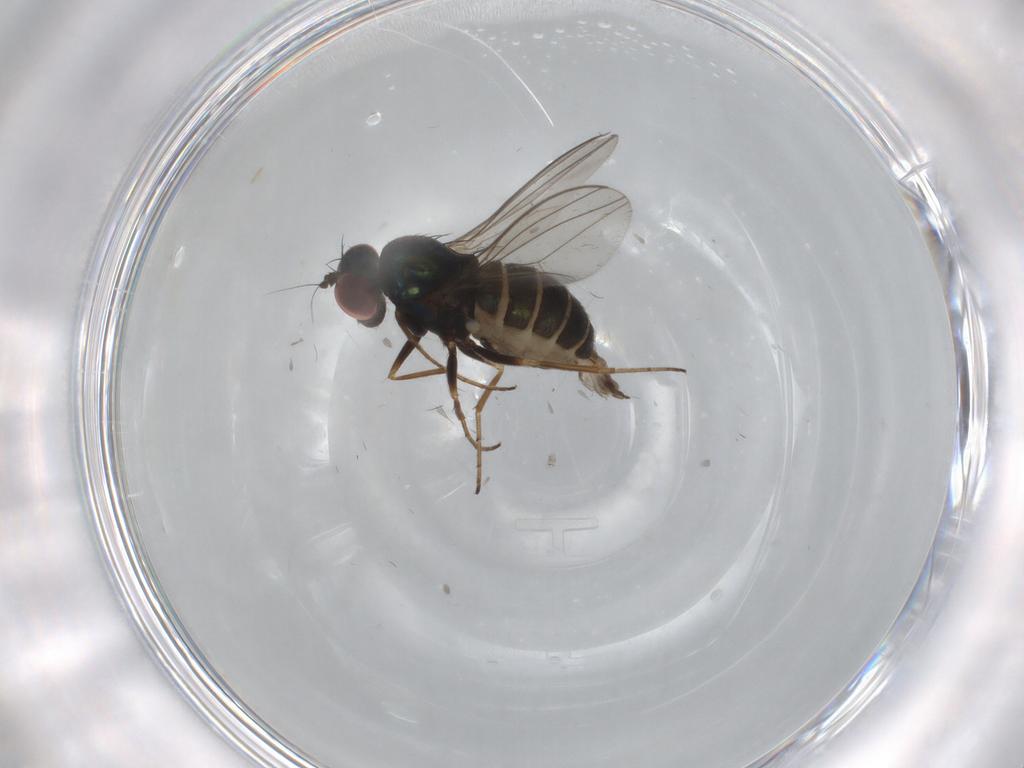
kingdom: Animalia
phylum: Arthropoda
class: Insecta
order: Diptera
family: Dolichopodidae
